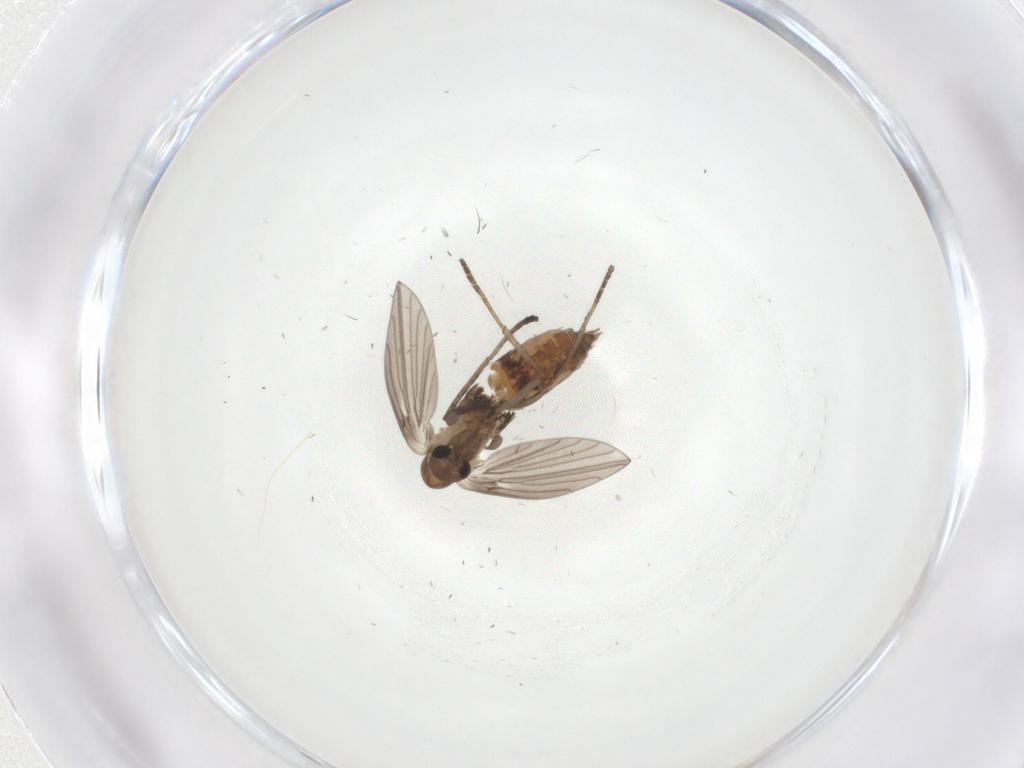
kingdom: Animalia
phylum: Arthropoda
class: Insecta
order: Diptera
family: Psychodidae
